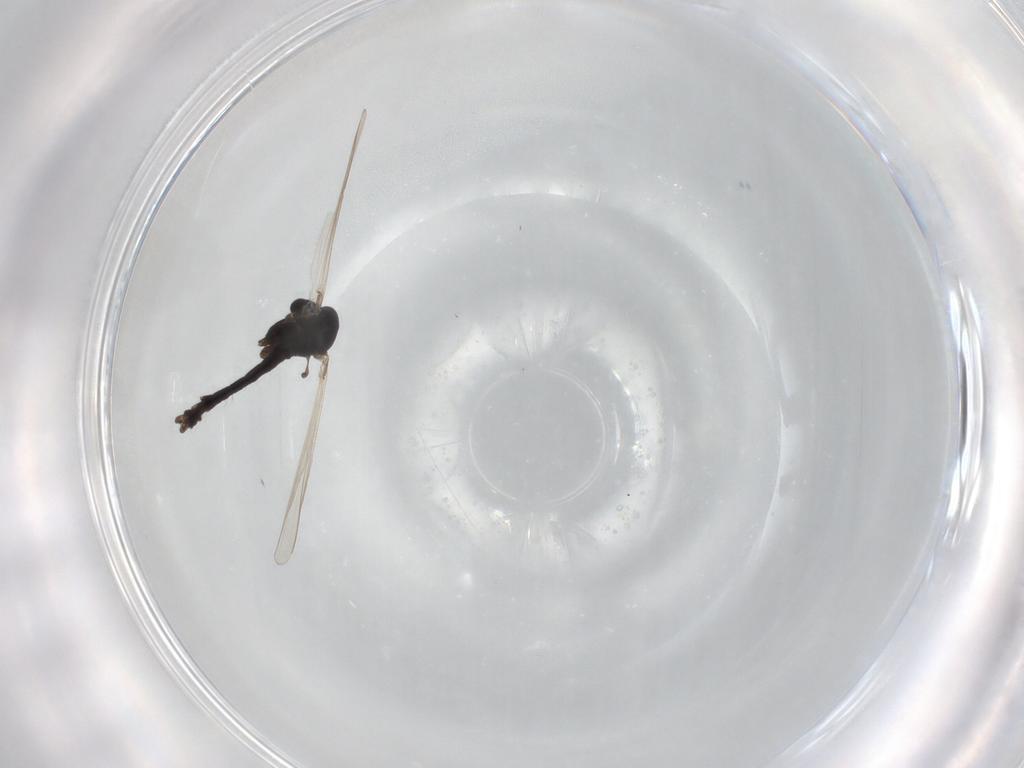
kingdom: Animalia
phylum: Arthropoda
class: Insecta
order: Diptera
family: Chironomidae
